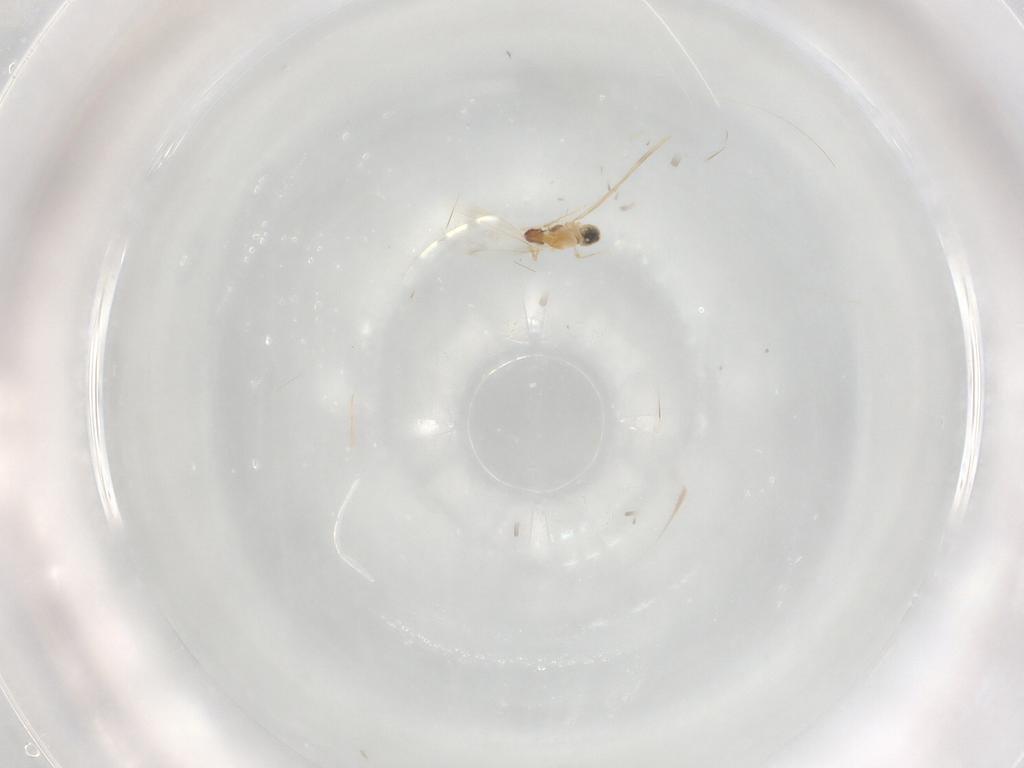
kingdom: Animalia
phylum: Arthropoda
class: Insecta
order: Diptera
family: Cecidomyiidae
